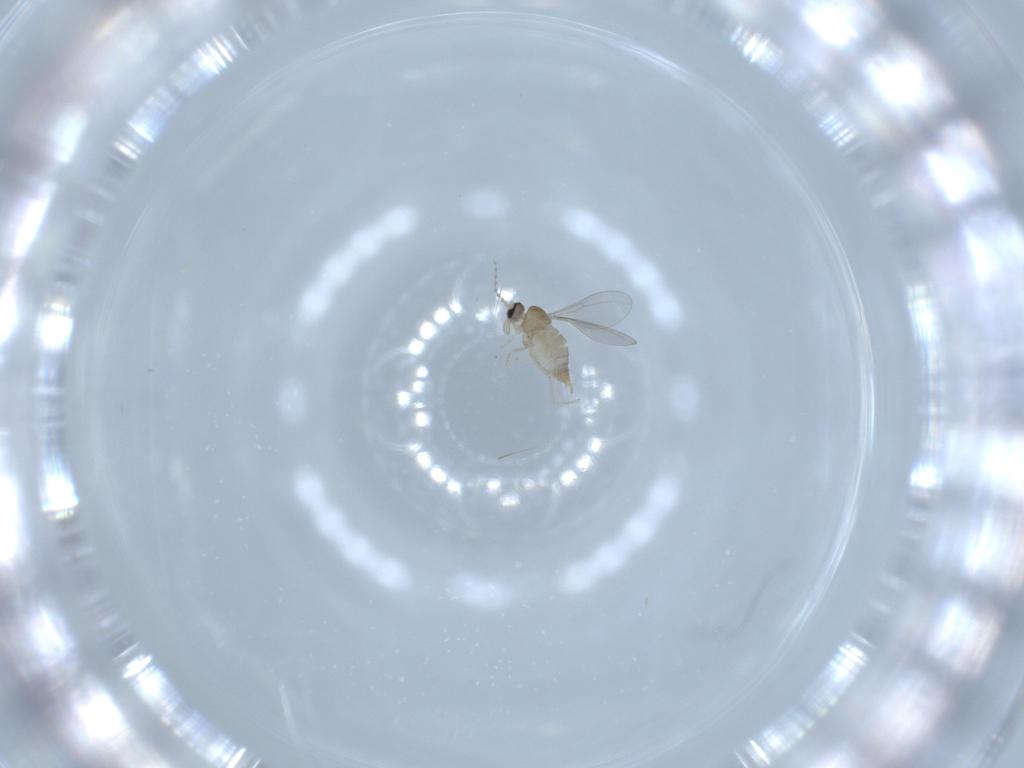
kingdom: Animalia
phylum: Arthropoda
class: Insecta
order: Diptera
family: Cecidomyiidae
